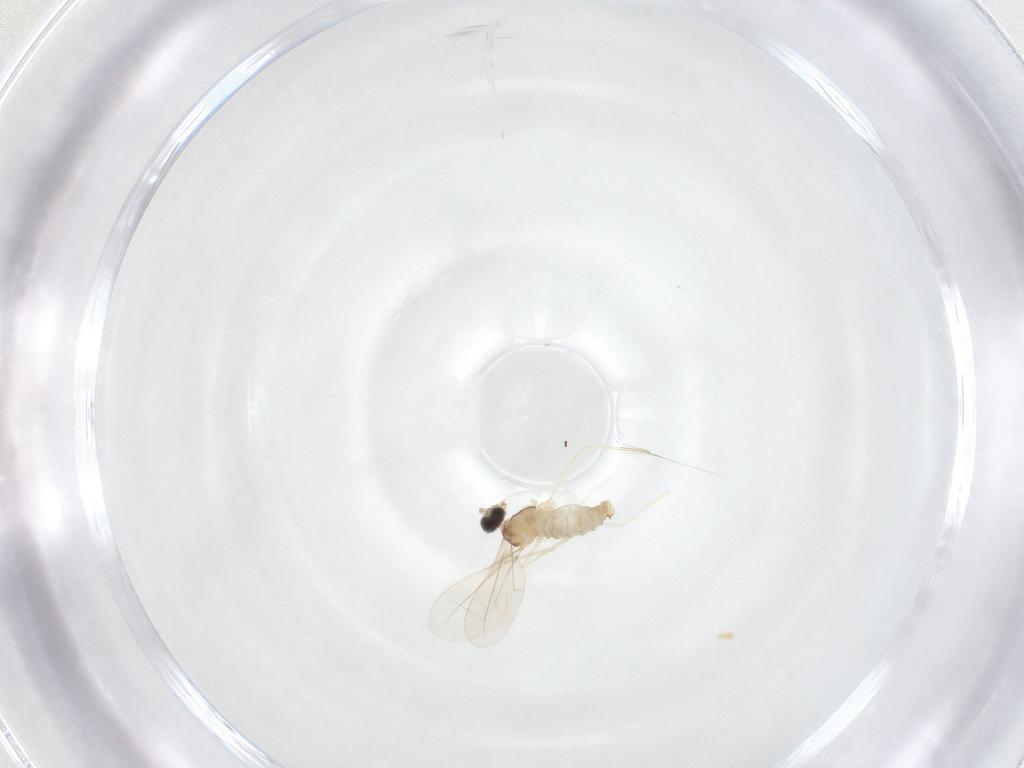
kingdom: Animalia
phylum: Arthropoda
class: Insecta
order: Diptera
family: Cecidomyiidae
